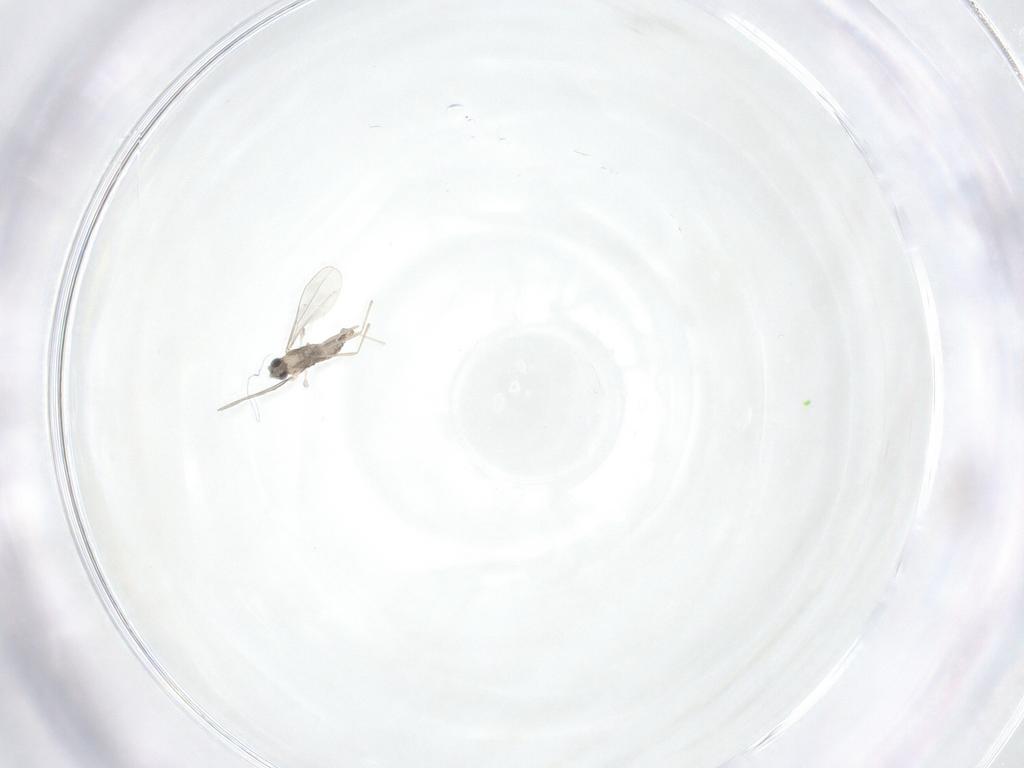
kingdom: Animalia
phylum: Arthropoda
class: Insecta
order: Diptera
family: Cecidomyiidae
